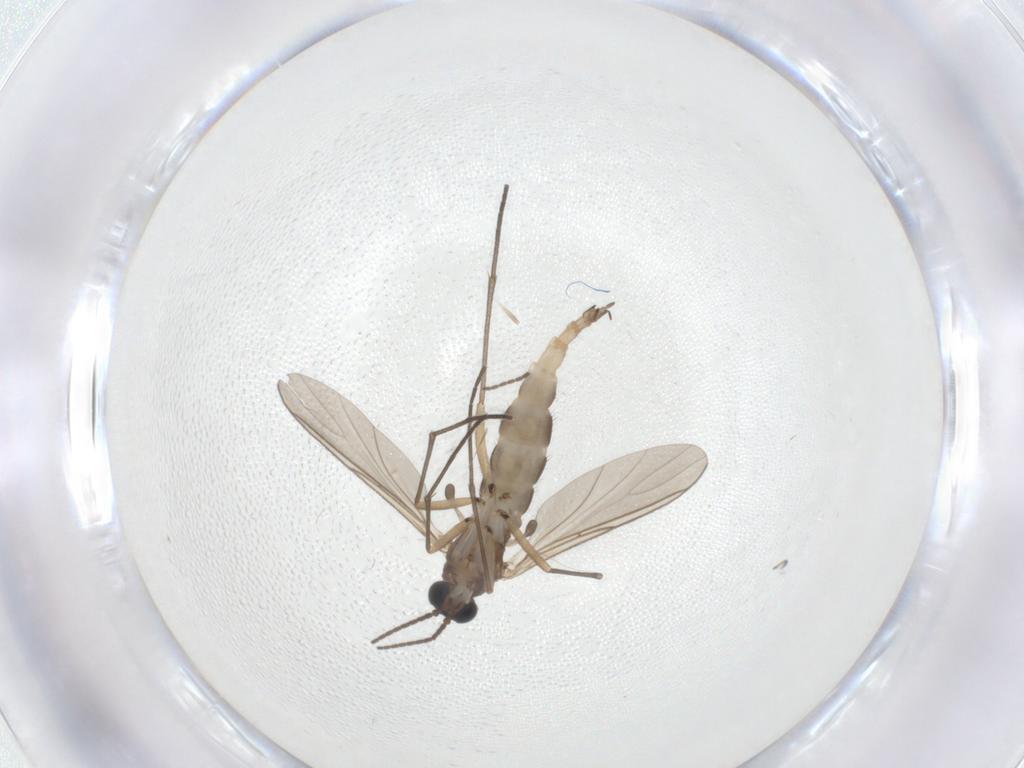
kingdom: Animalia
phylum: Arthropoda
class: Insecta
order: Diptera
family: Sciaridae
